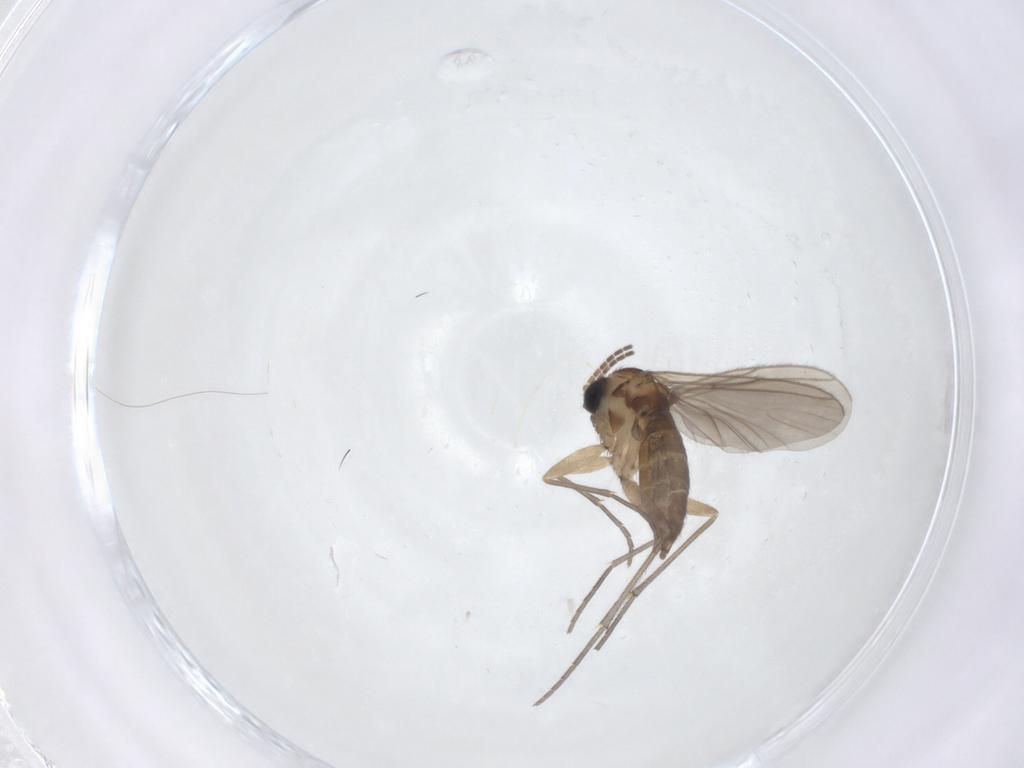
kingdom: Animalia
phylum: Arthropoda
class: Insecta
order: Diptera
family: Sciaridae
